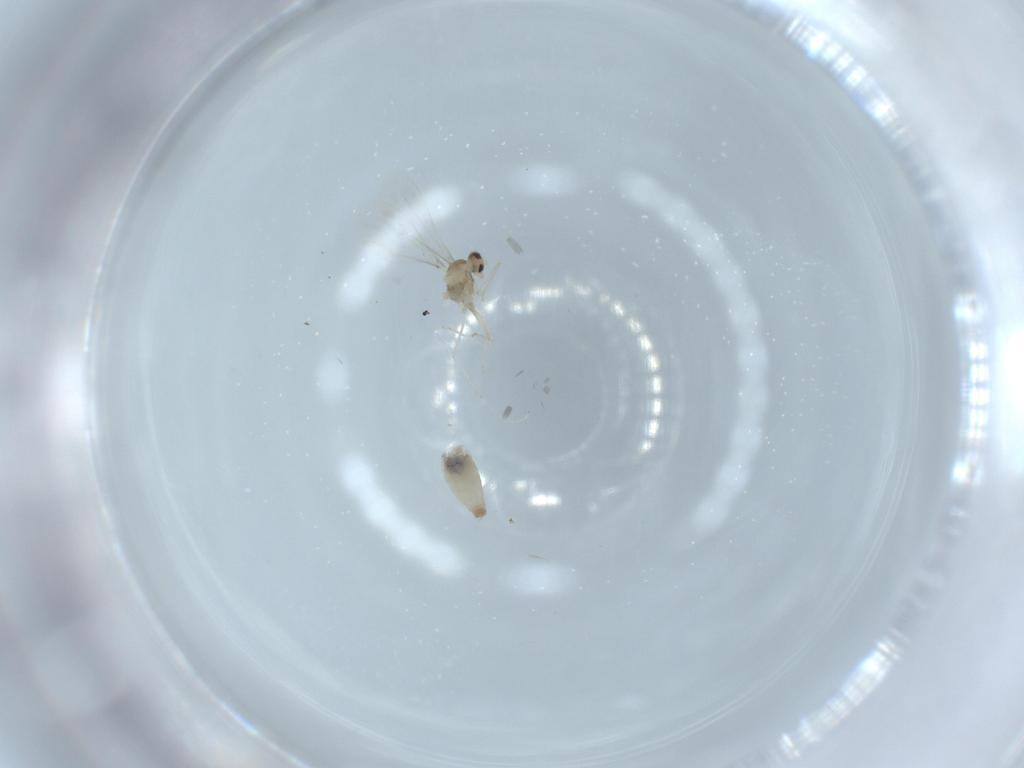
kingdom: Animalia
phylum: Arthropoda
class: Insecta
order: Diptera
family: Cecidomyiidae
